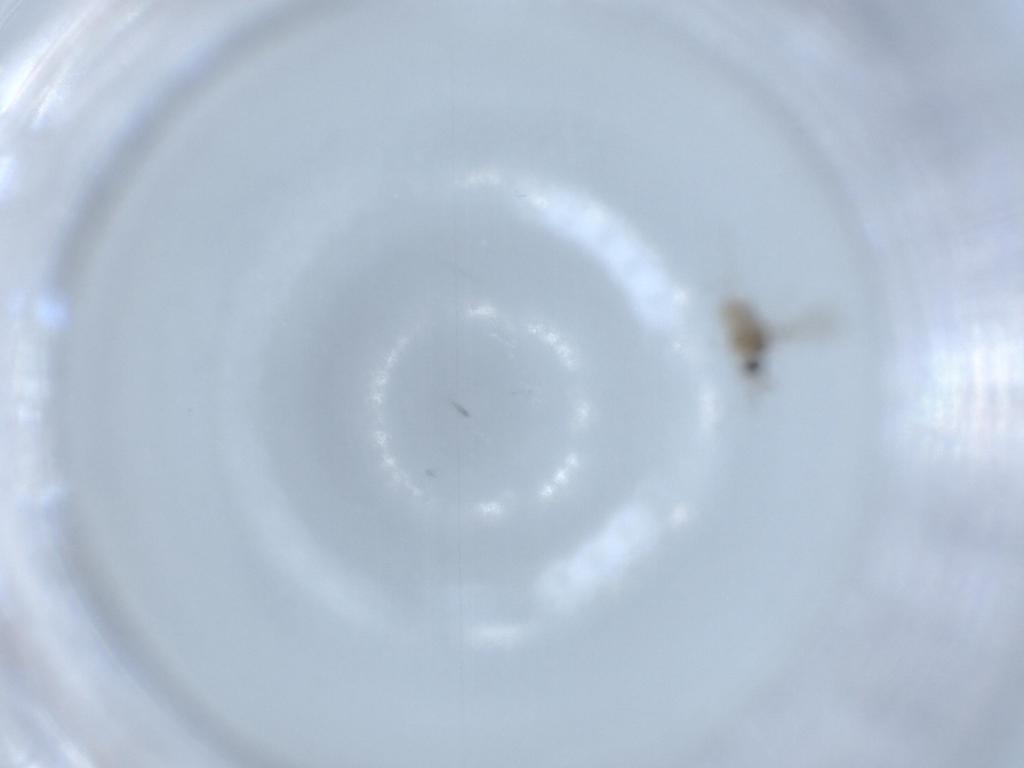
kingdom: Animalia
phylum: Arthropoda
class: Insecta
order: Diptera
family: Cecidomyiidae
